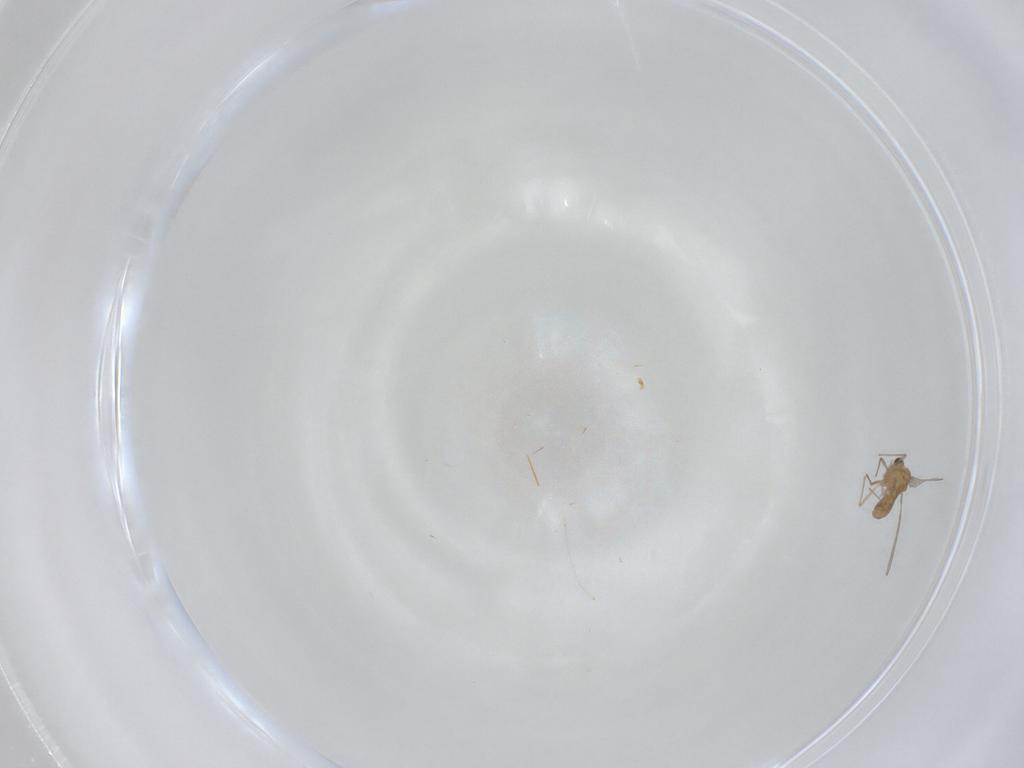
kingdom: Animalia
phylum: Arthropoda
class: Insecta
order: Diptera
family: Chironomidae
